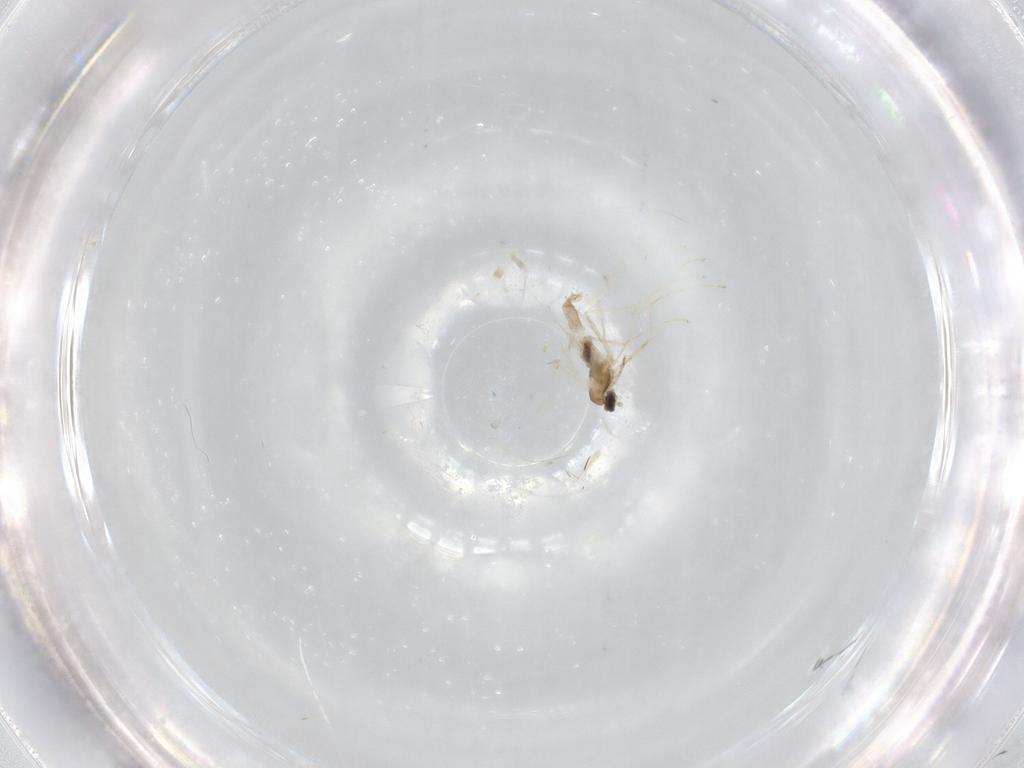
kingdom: Animalia
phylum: Arthropoda
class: Insecta
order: Diptera
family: Cecidomyiidae
